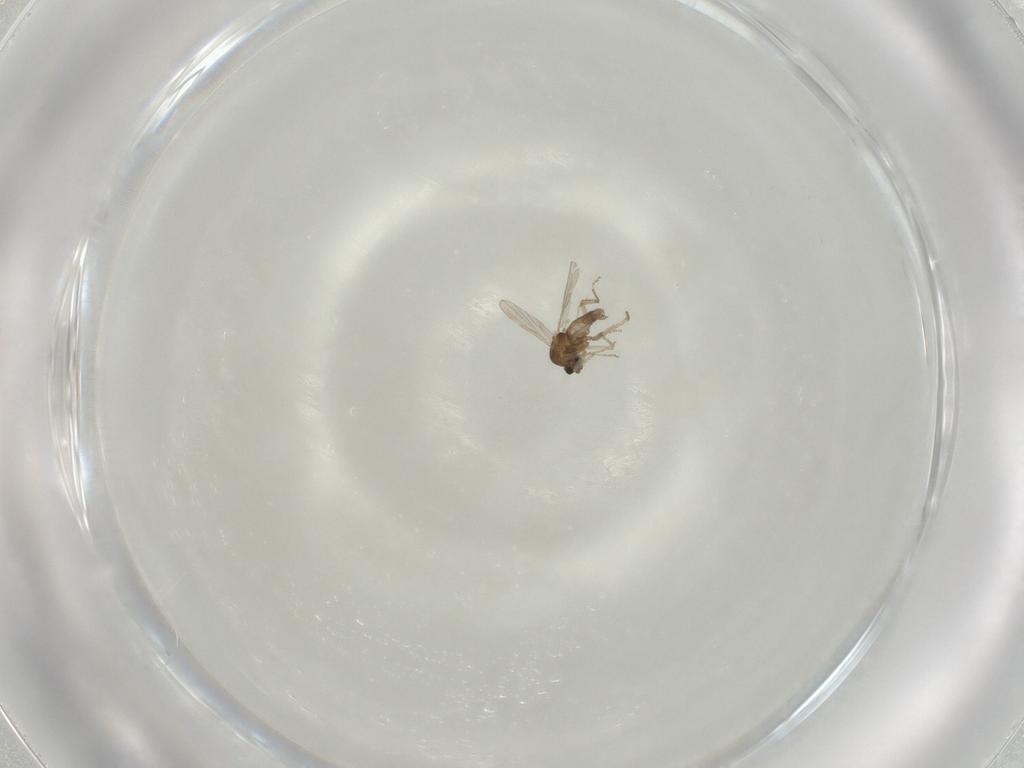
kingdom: Animalia
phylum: Arthropoda
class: Insecta
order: Diptera
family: Ceratopogonidae
